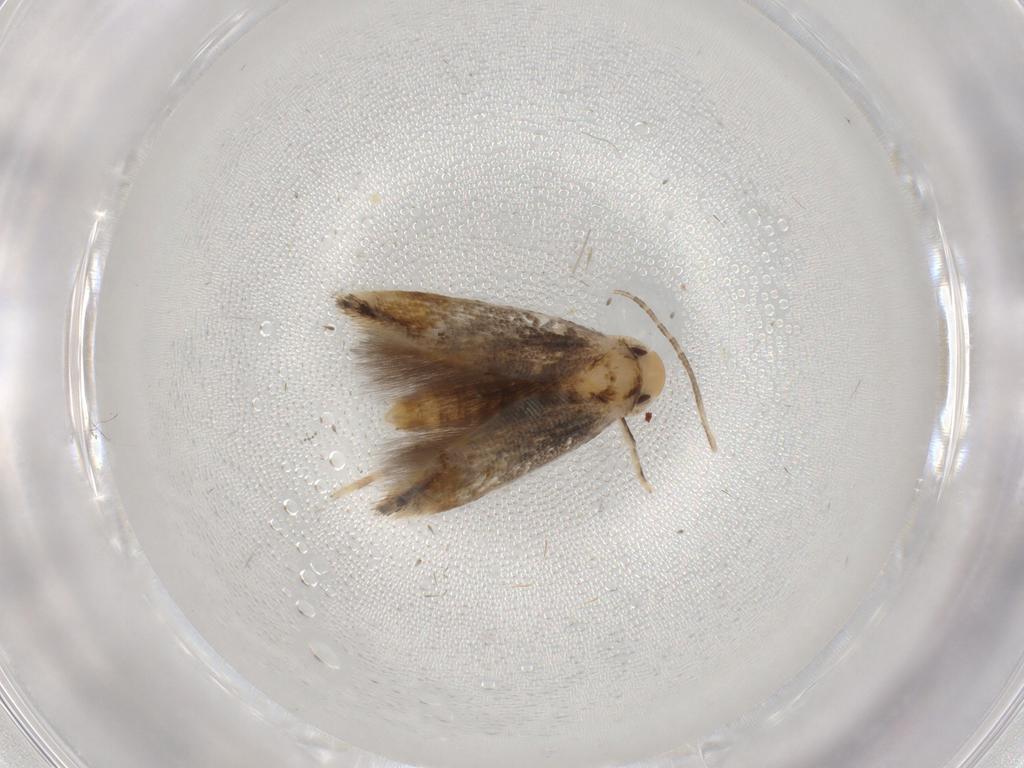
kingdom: Animalia
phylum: Arthropoda
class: Insecta
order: Lepidoptera
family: Momphidae
